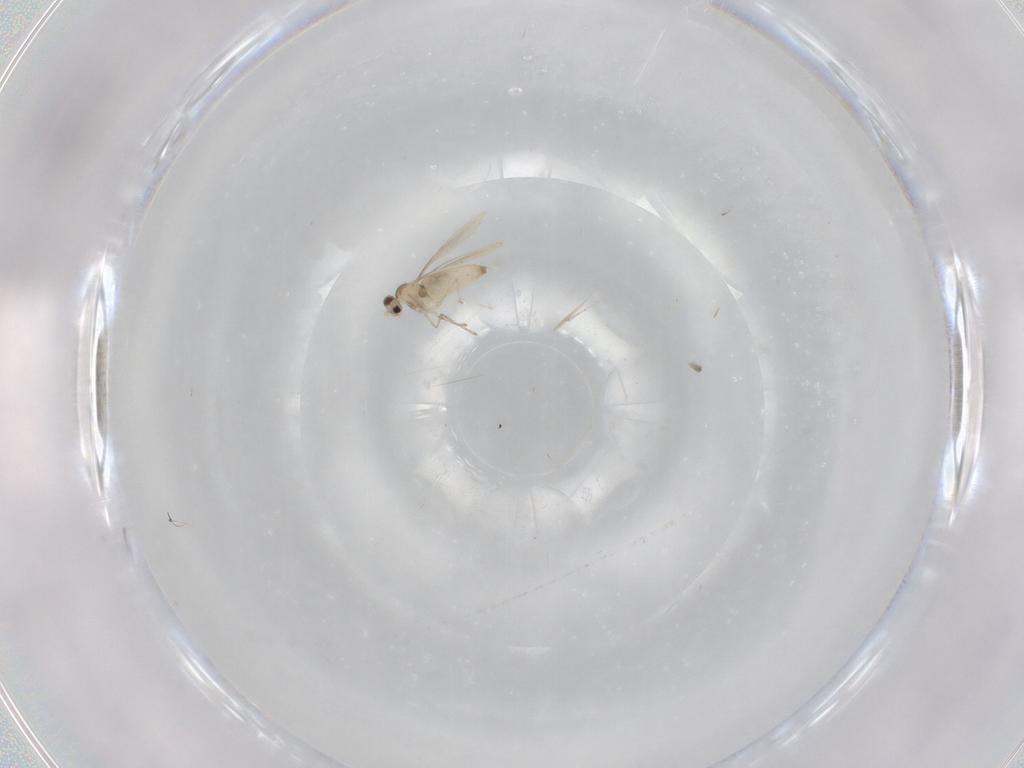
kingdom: Animalia
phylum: Arthropoda
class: Insecta
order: Diptera
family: Cecidomyiidae
